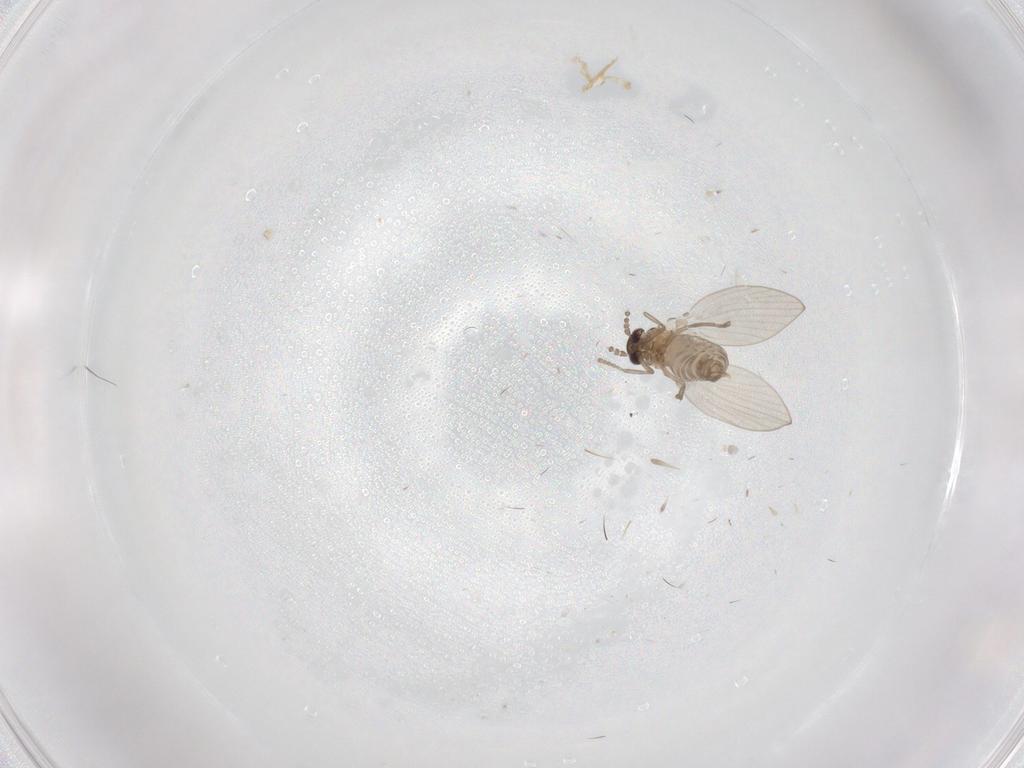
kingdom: Animalia
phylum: Arthropoda
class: Insecta
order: Diptera
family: Psychodidae
